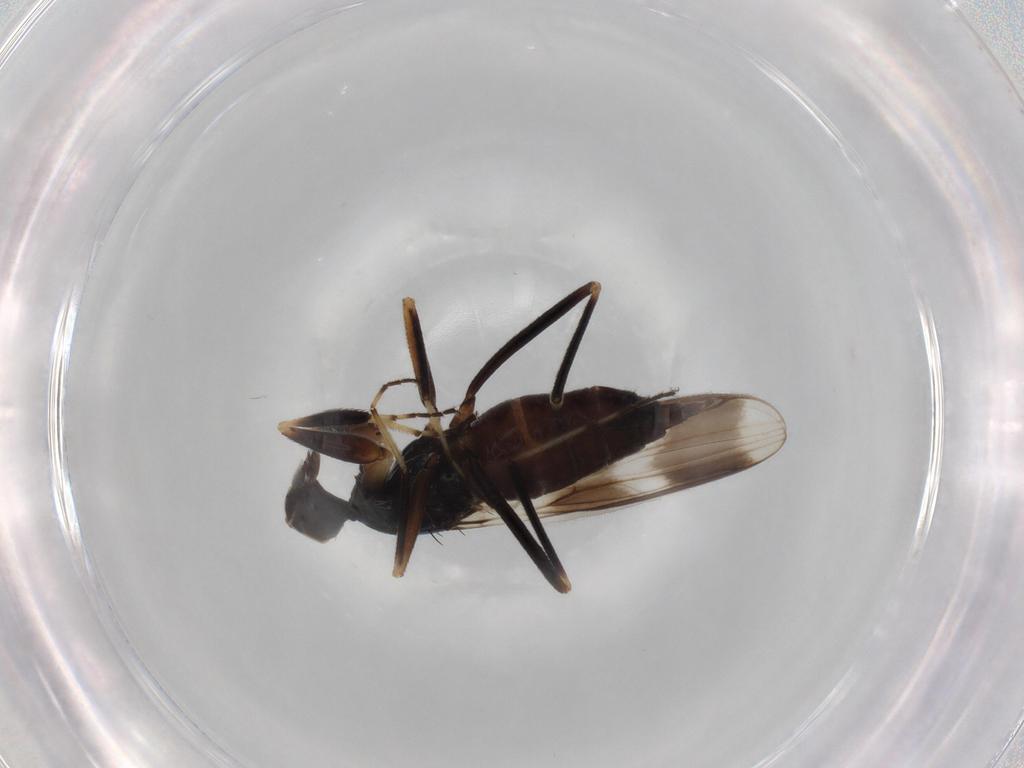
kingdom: Animalia
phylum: Arthropoda
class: Insecta
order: Diptera
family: Hybotidae
